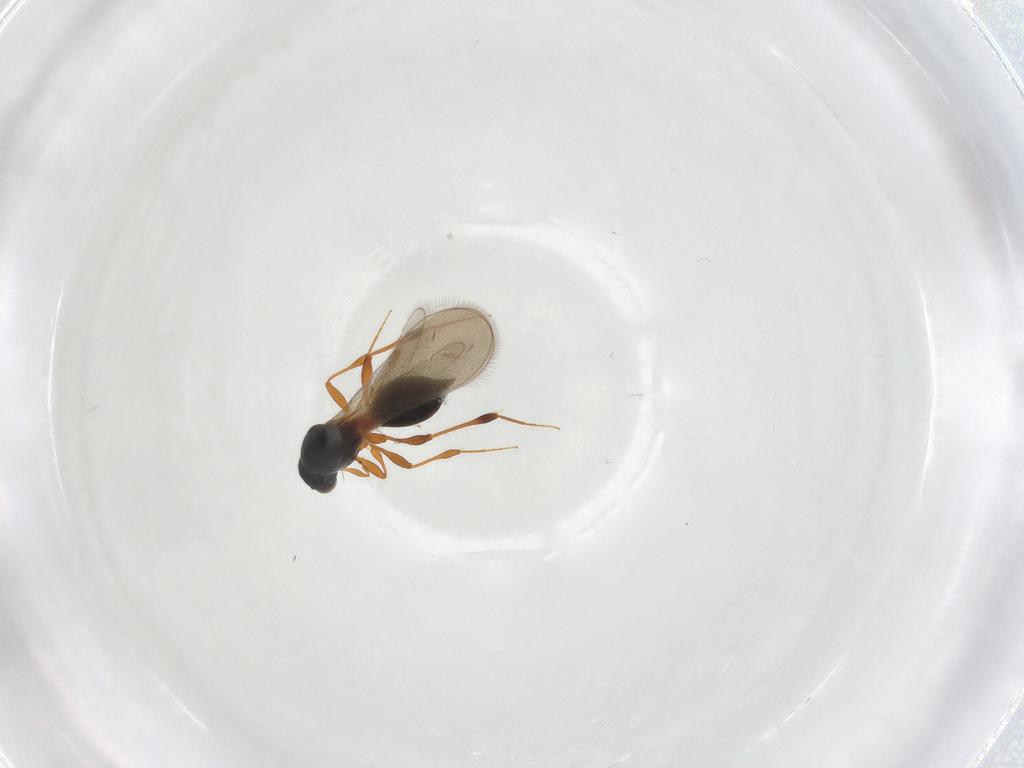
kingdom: Animalia
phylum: Arthropoda
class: Insecta
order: Hymenoptera
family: Platygastridae
